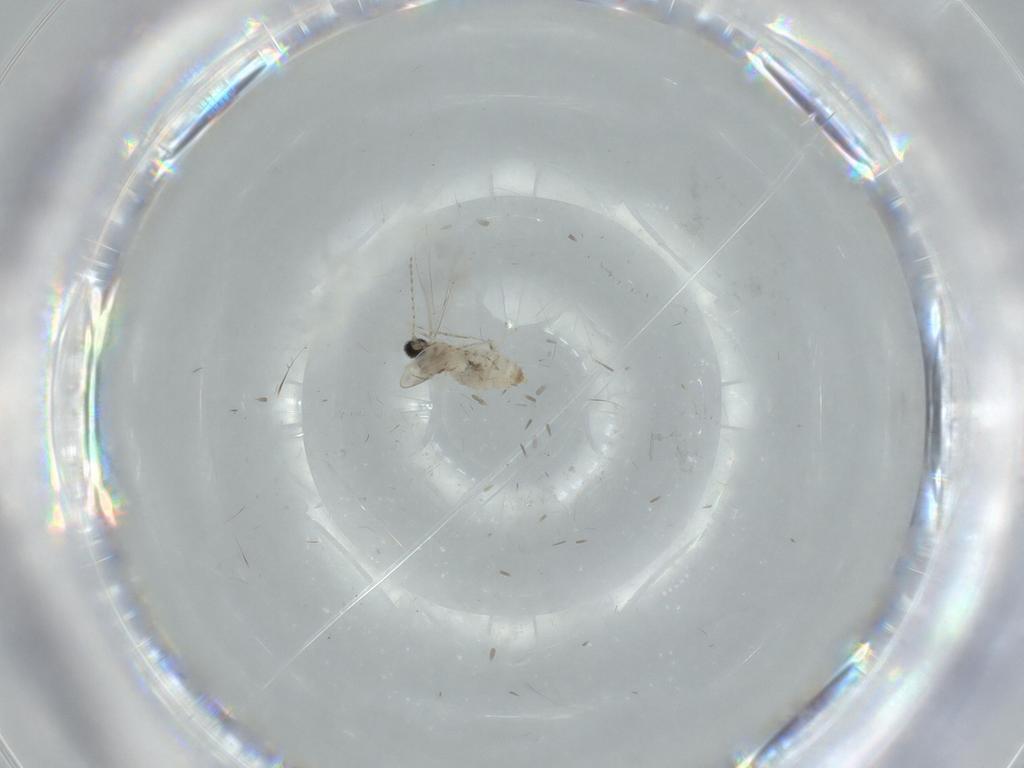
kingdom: Animalia
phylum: Arthropoda
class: Insecta
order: Diptera
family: Cecidomyiidae
